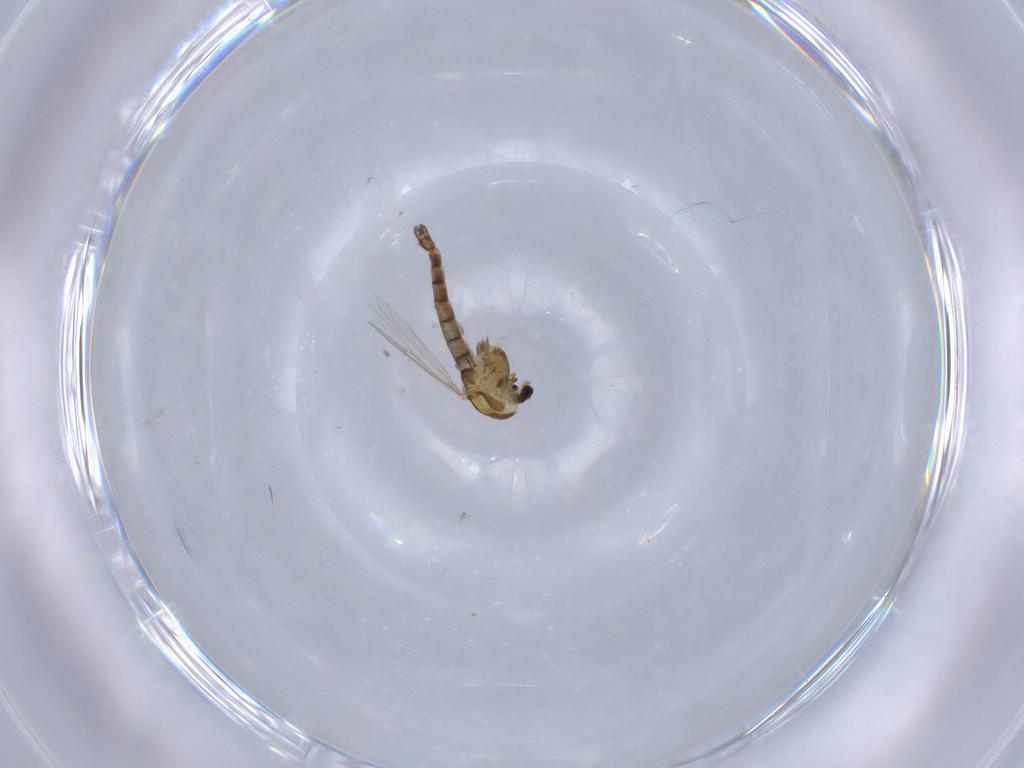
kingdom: Animalia
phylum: Arthropoda
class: Insecta
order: Diptera
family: Chironomidae
